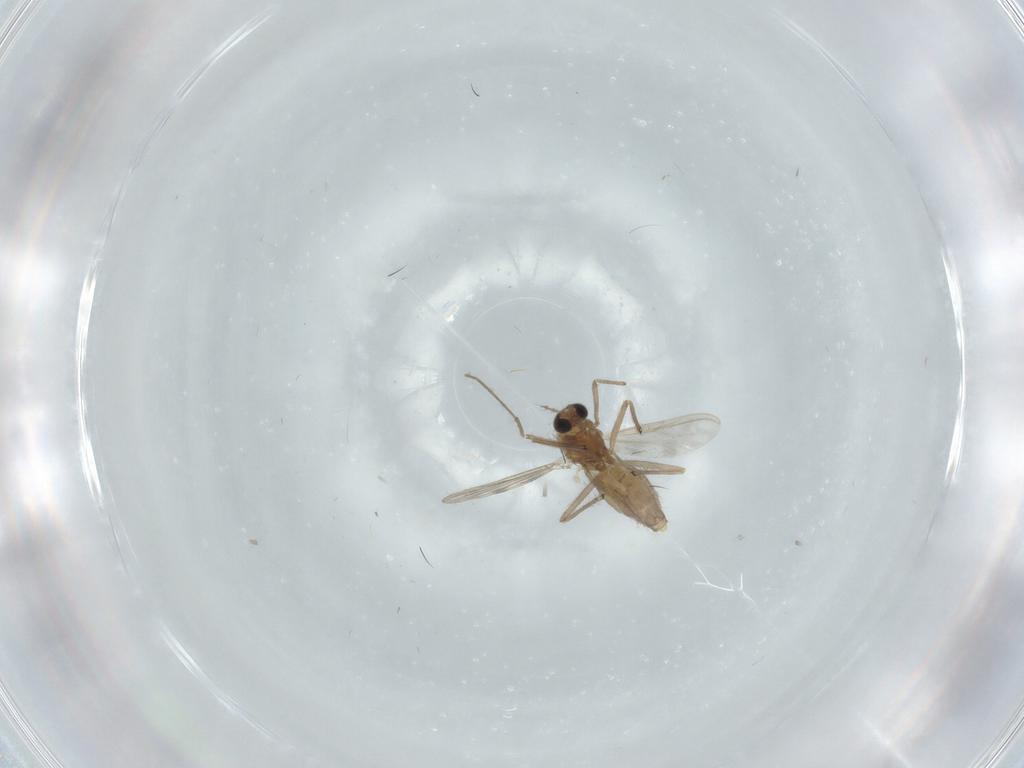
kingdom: Animalia
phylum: Arthropoda
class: Insecta
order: Diptera
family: Chironomidae
